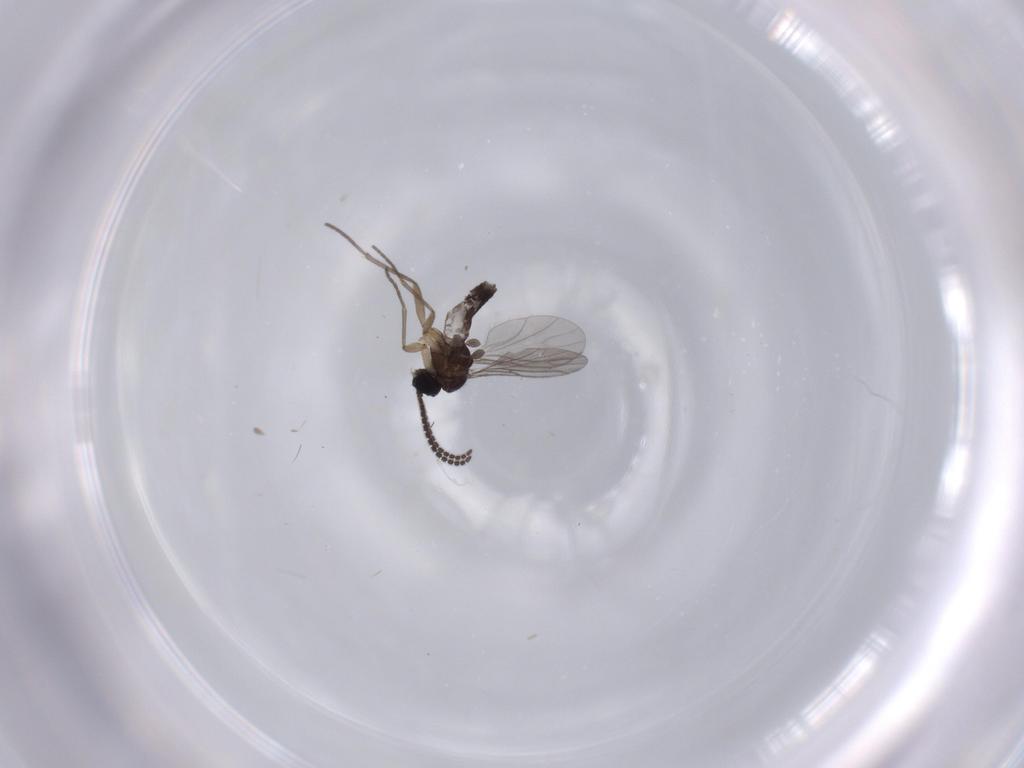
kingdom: Animalia
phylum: Arthropoda
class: Insecta
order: Diptera
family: Sciaridae
